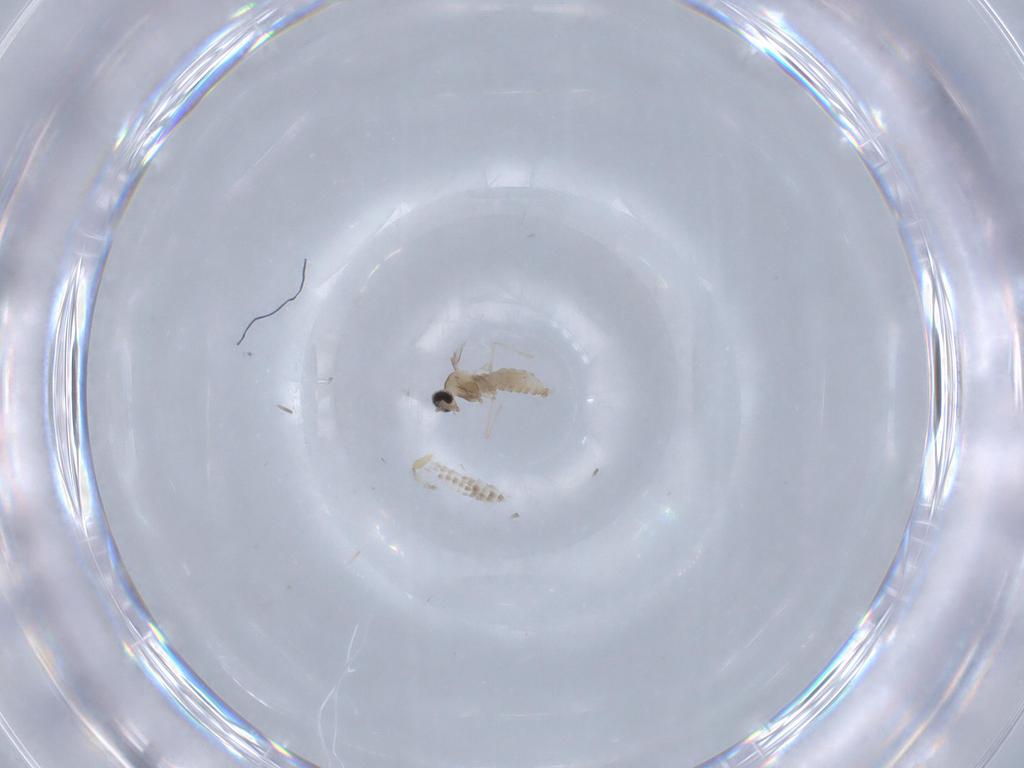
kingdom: Animalia
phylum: Arthropoda
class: Insecta
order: Diptera
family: Cecidomyiidae
